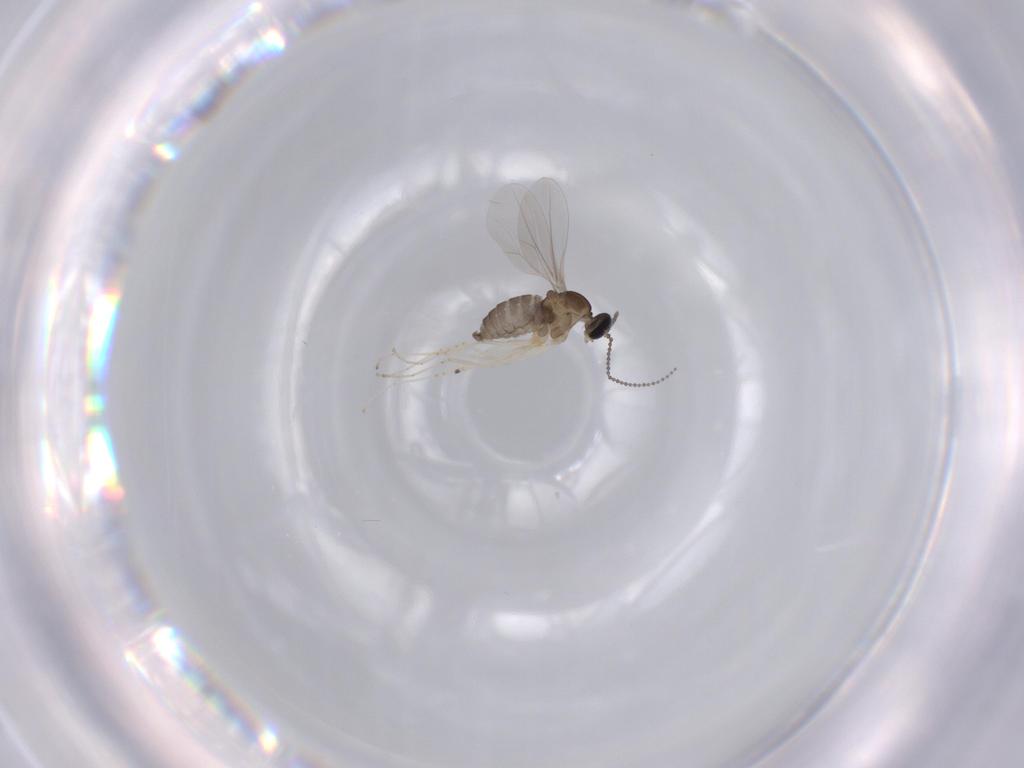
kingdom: Animalia
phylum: Arthropoda
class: Insecta
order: Diptera
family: Cecidomyiidae
